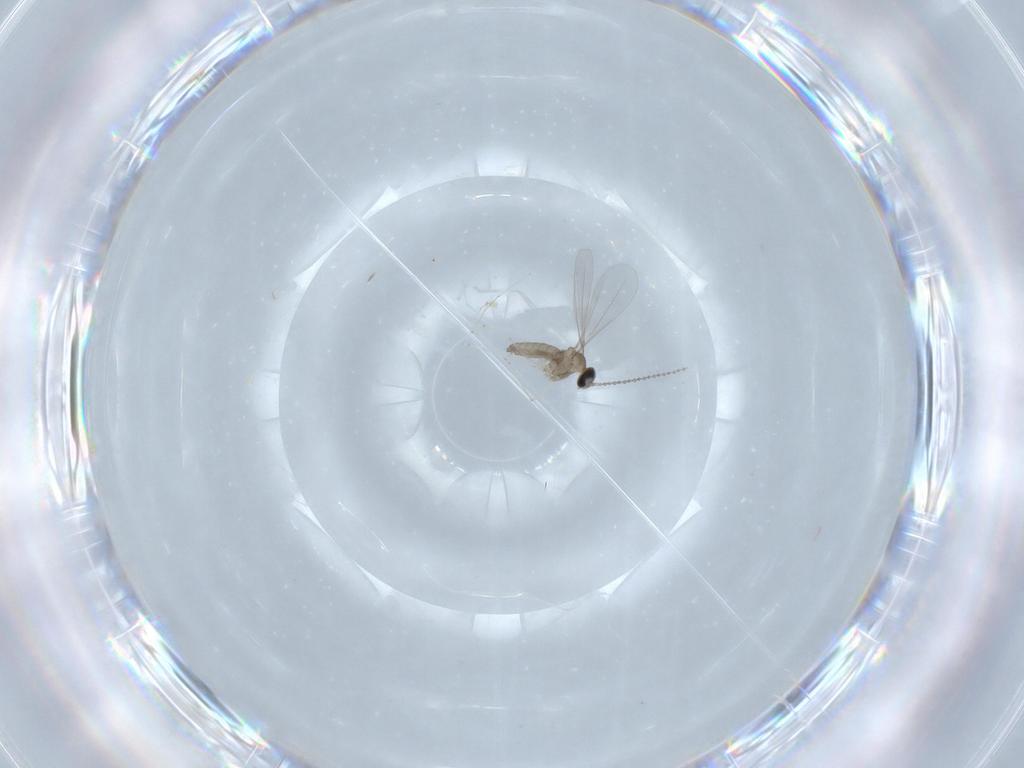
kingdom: Animalia
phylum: Arthropoda
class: Insecta
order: Diptera
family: Cecidomyiidae
